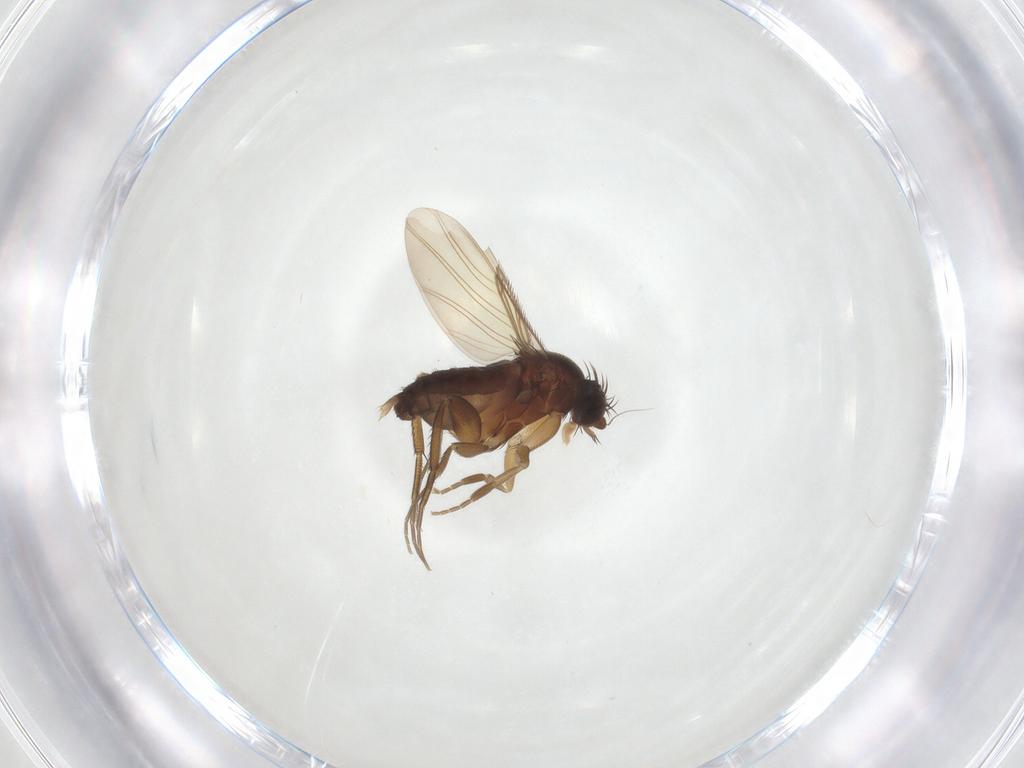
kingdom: Animalia
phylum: Arthropoda
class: Insecta
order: Diptera
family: Phoridae
